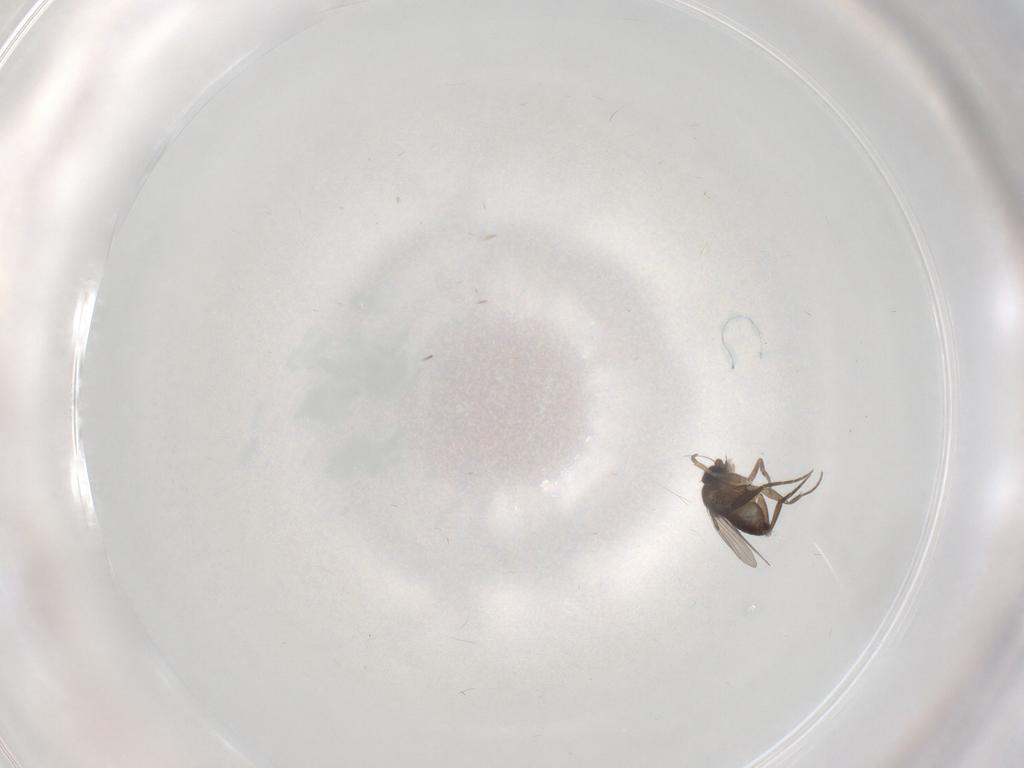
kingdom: Animalia
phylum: Arthropoda
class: Insecta
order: Diptera
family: Phoridae
